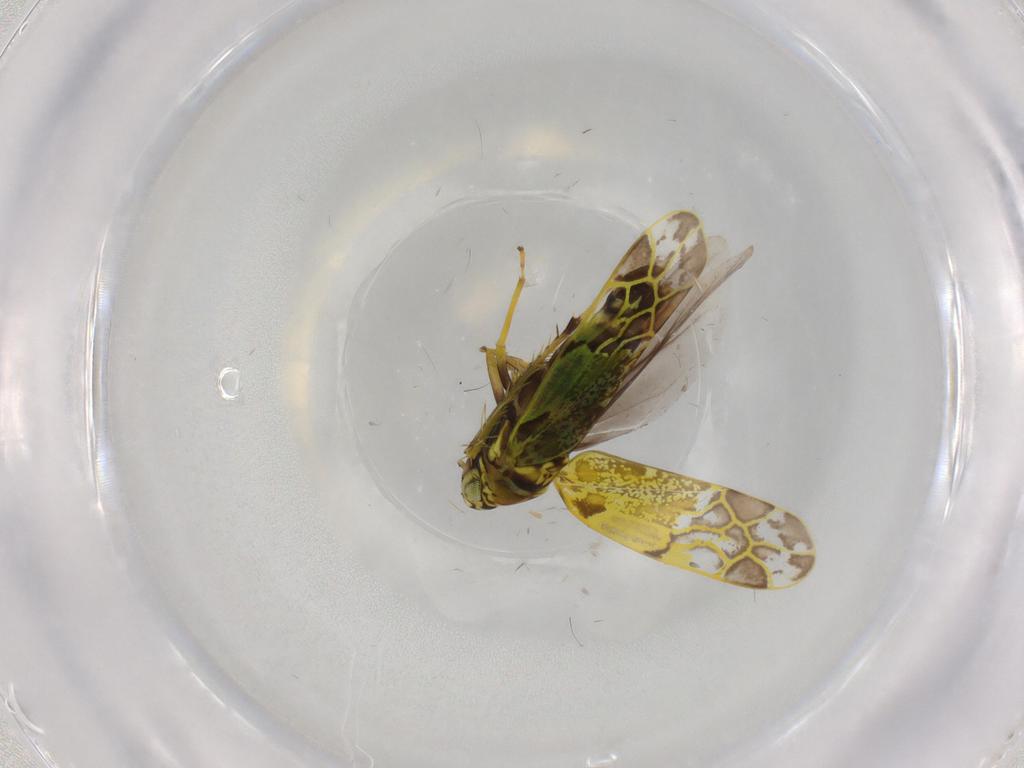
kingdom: Animalia
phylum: Arthropoda
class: Insecta
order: Hemiptera
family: Cicadellidae
